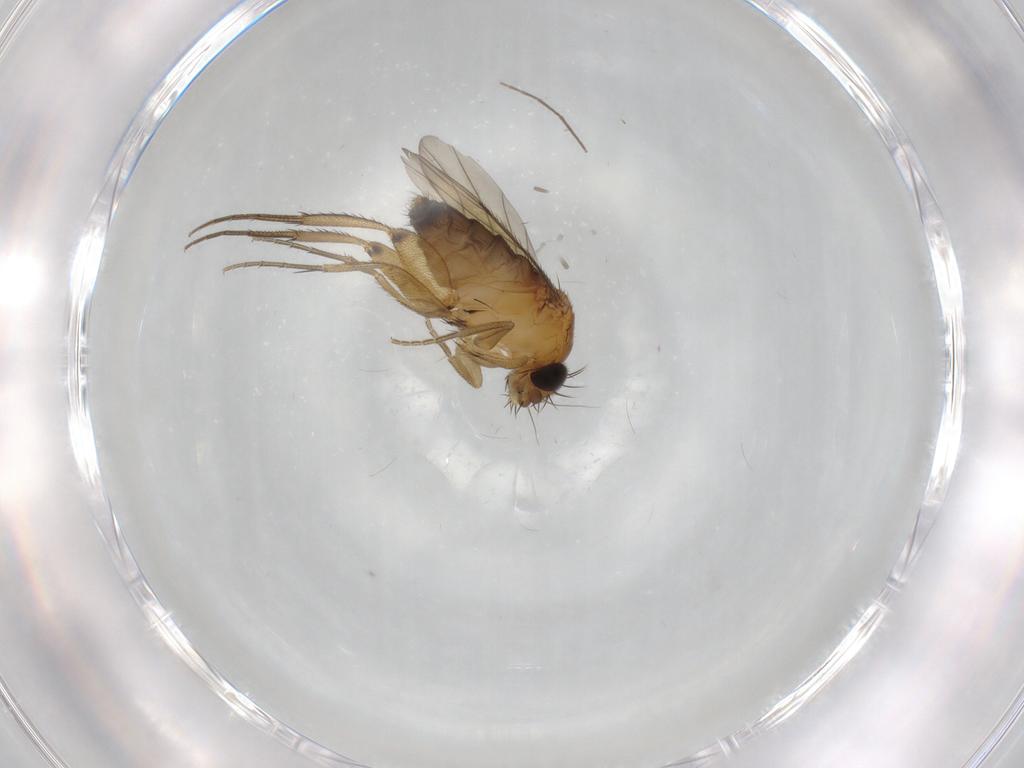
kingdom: Animalia
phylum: Arthropoda
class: Insecta
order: Diptera
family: Phoridae
